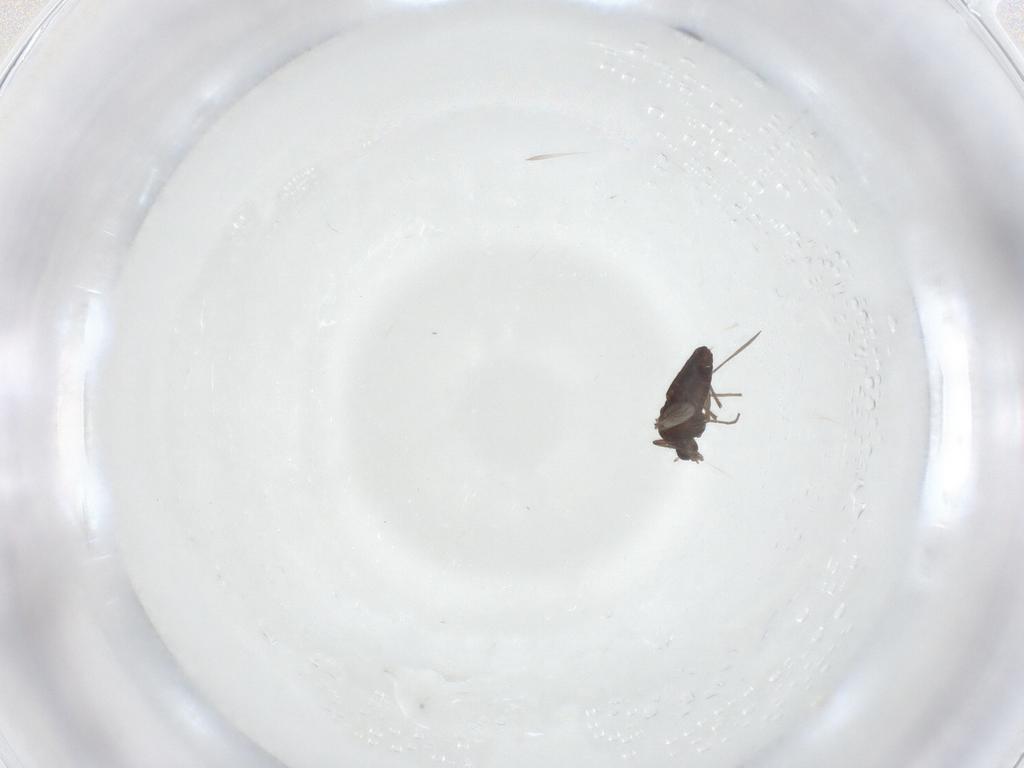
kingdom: Animalia
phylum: Arthropoda
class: Insecta
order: Diptera
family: Chironomidae
